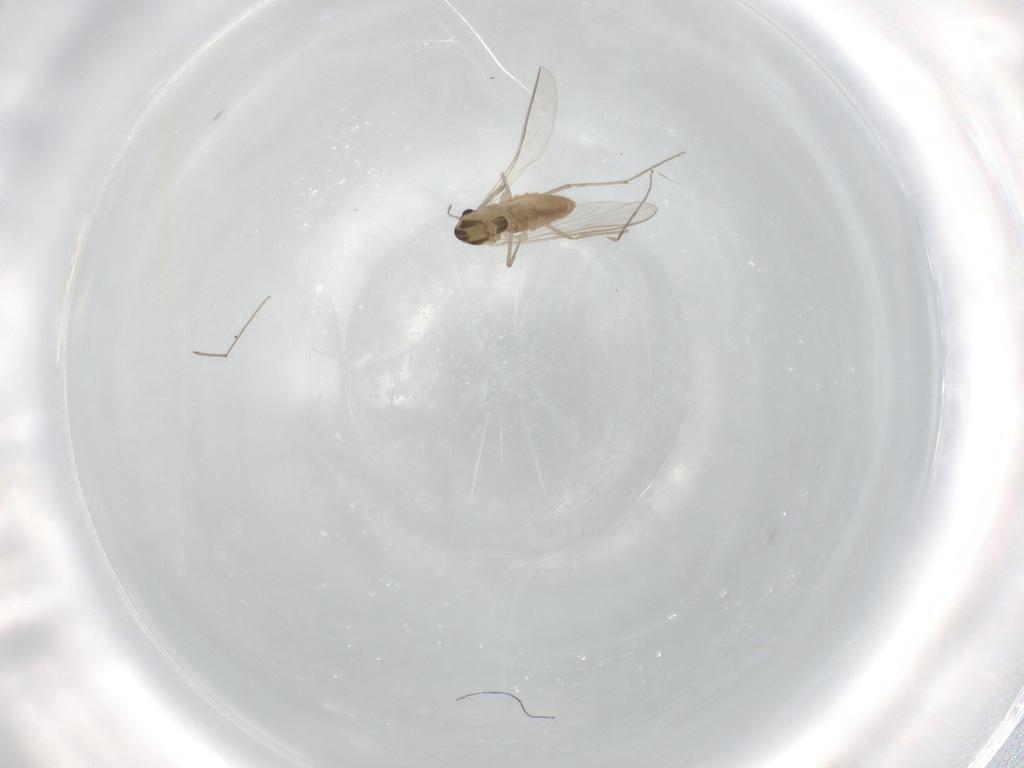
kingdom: Animalia
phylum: Arthropoda
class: Insecta
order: Diptera
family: Chironomidae
